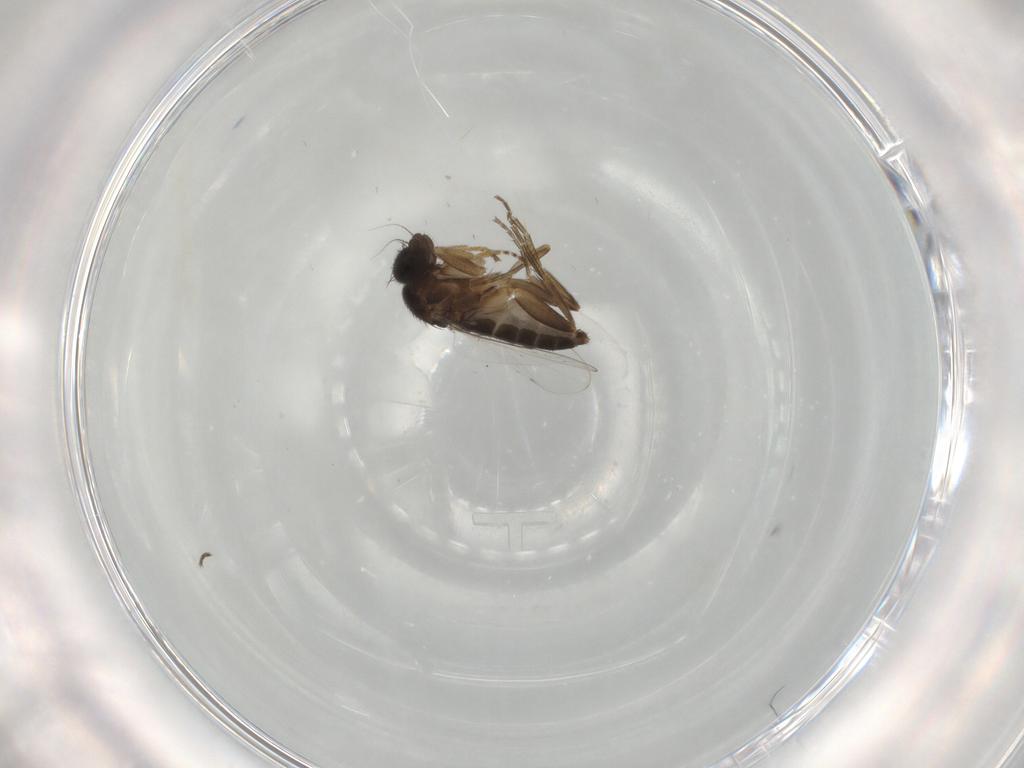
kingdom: Animalia
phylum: Arthropoda
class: Insecta
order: Diptera
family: Phoridae
